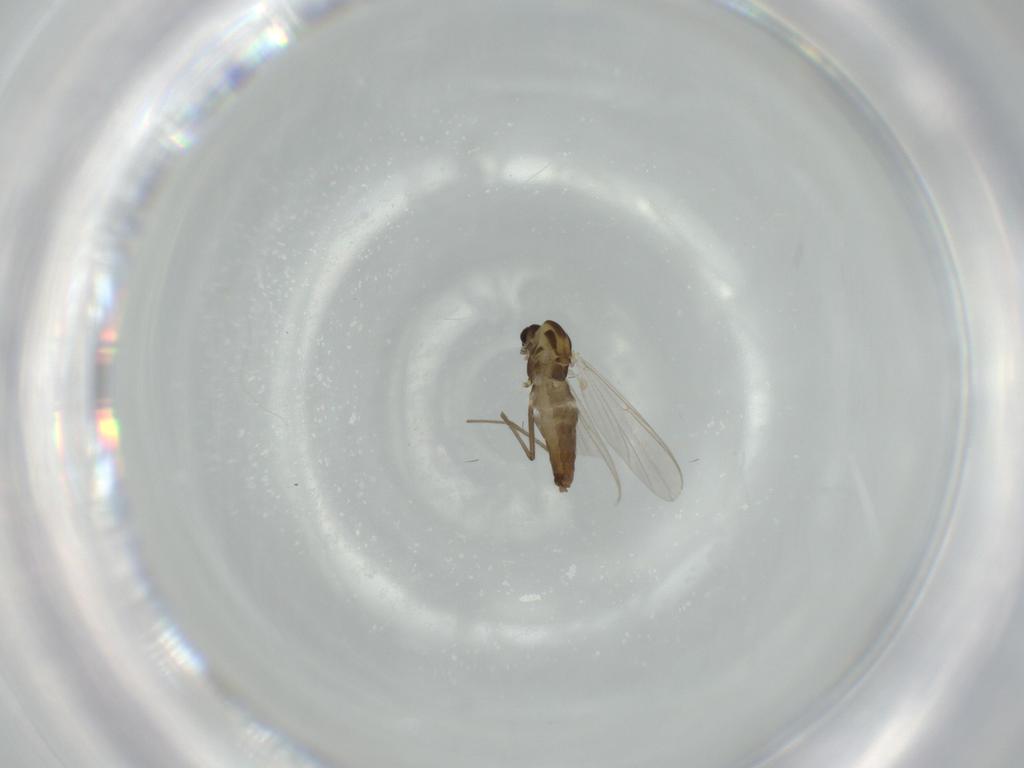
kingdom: Animalia
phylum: Arthropoda
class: Insecta
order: Diptera
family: Chironomidae
